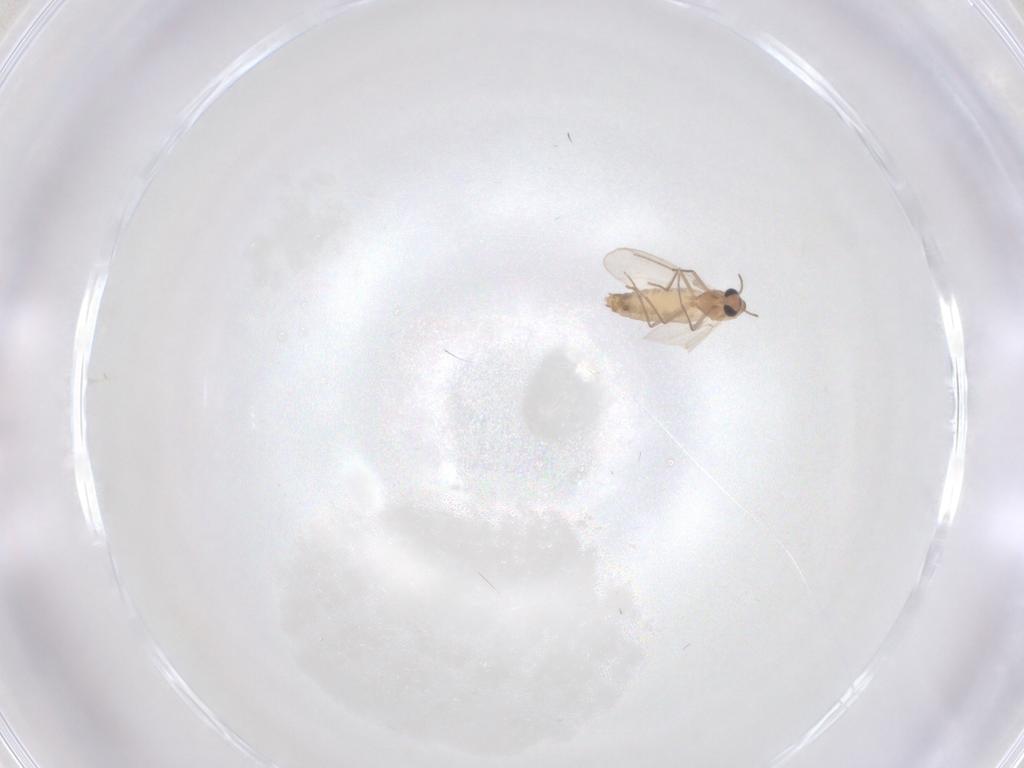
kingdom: Animalia
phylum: Arthropoda
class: Insecta
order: Diptera
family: Chironomidae
